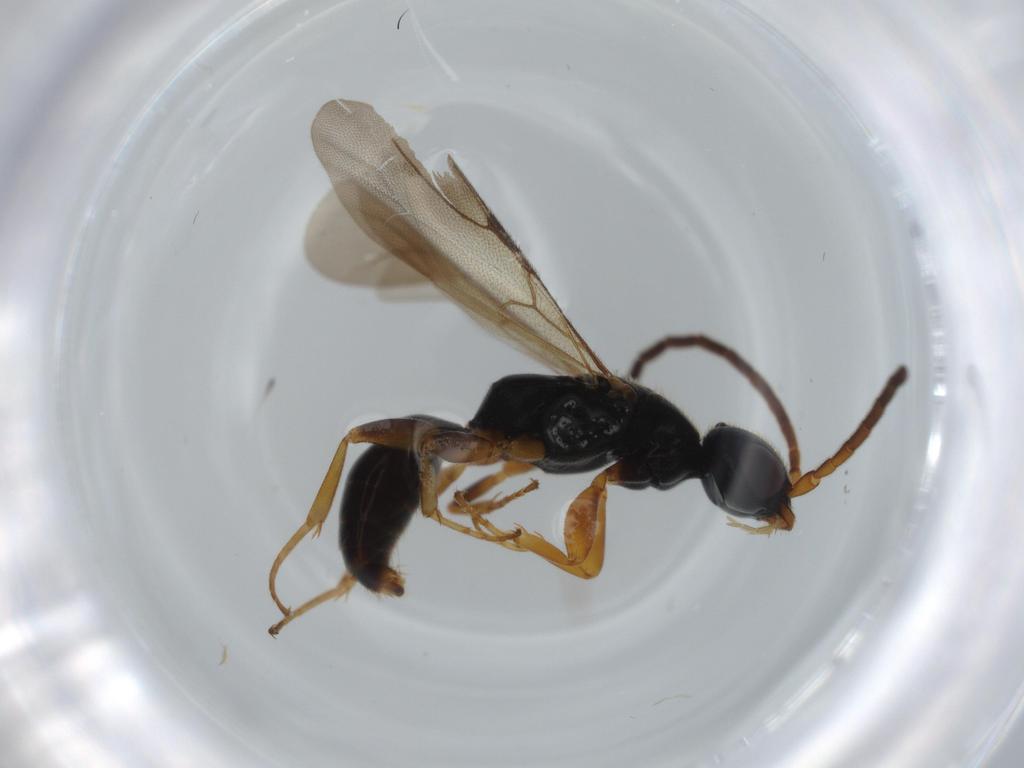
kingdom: Animalia
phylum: Arthropoda
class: Insecta
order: Hymenoptera
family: Bethylidae
